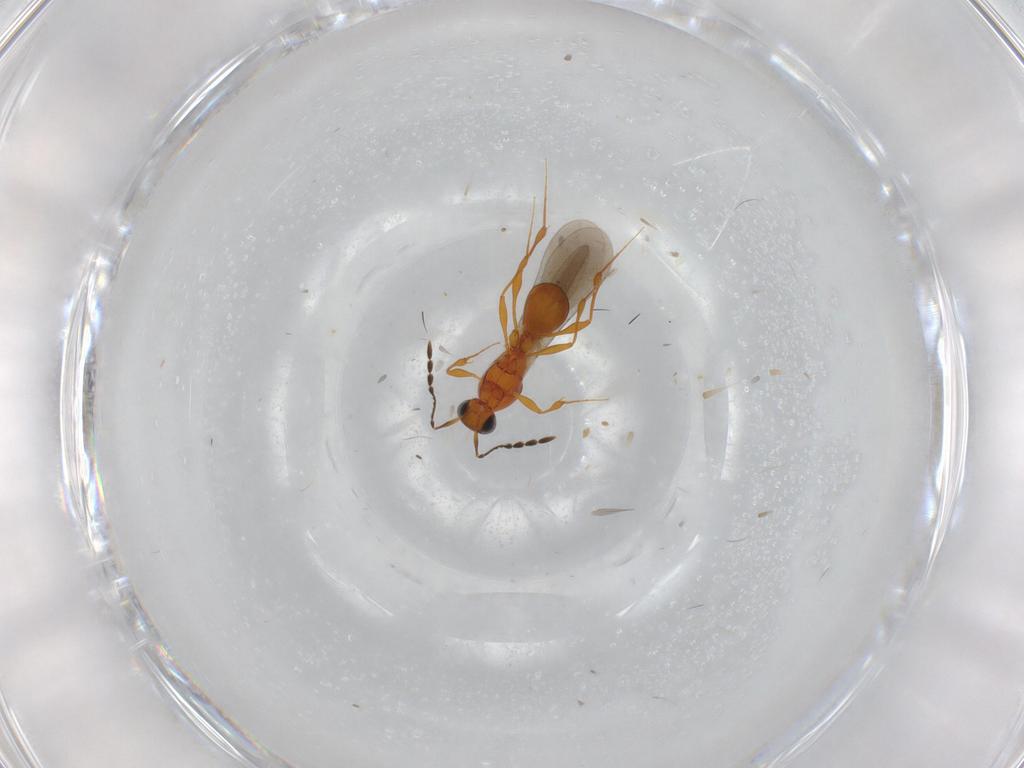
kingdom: Animalia
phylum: Arthropoda
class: Insecta
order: Hymenoptera
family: Platygastridae
